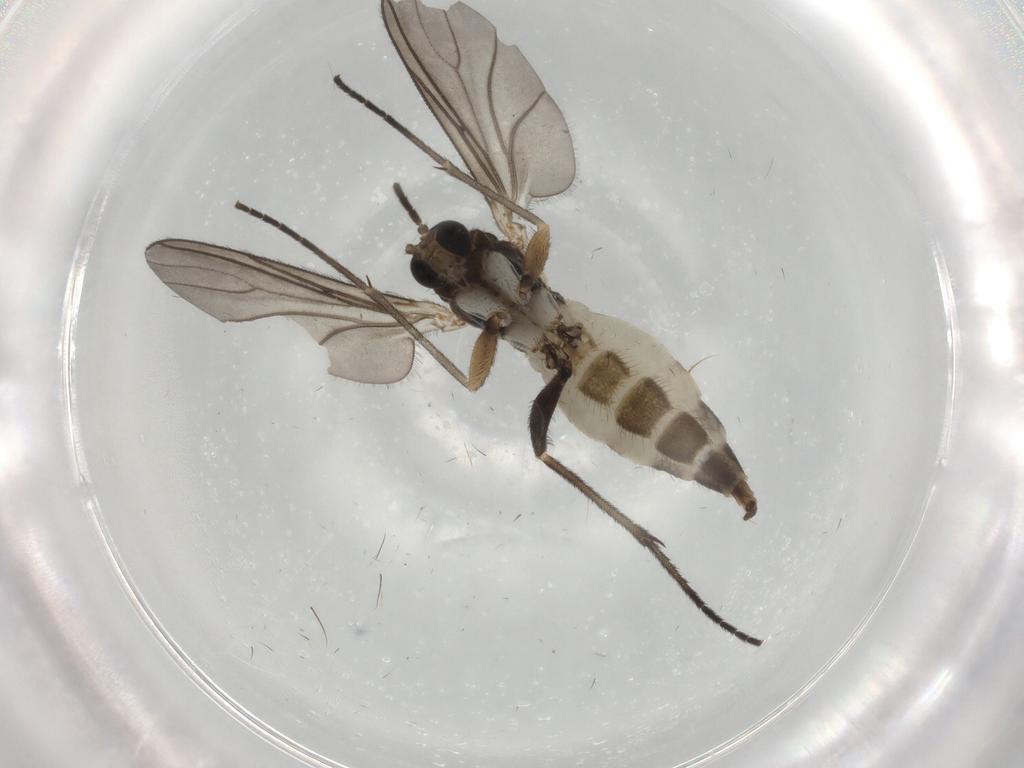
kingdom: Animalia
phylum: Arthropoda
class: Insecta
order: Diptera
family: Sciaridae
